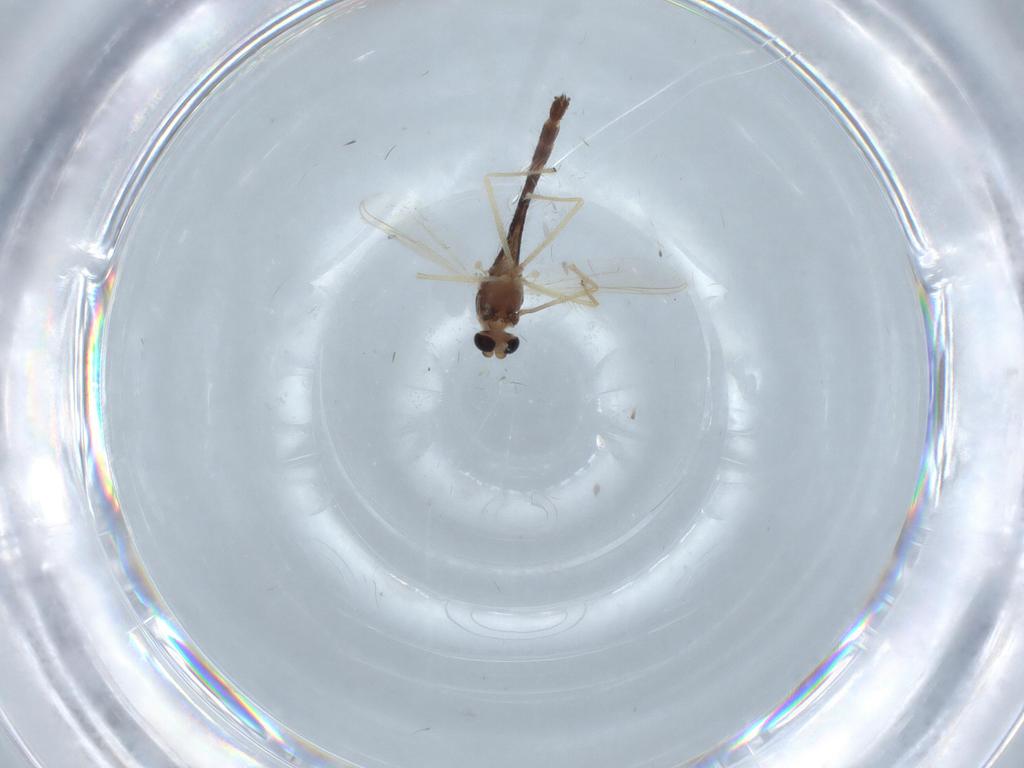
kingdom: Animalia
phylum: Arthropoda
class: Insecta
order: Diptera
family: Chironomidae
